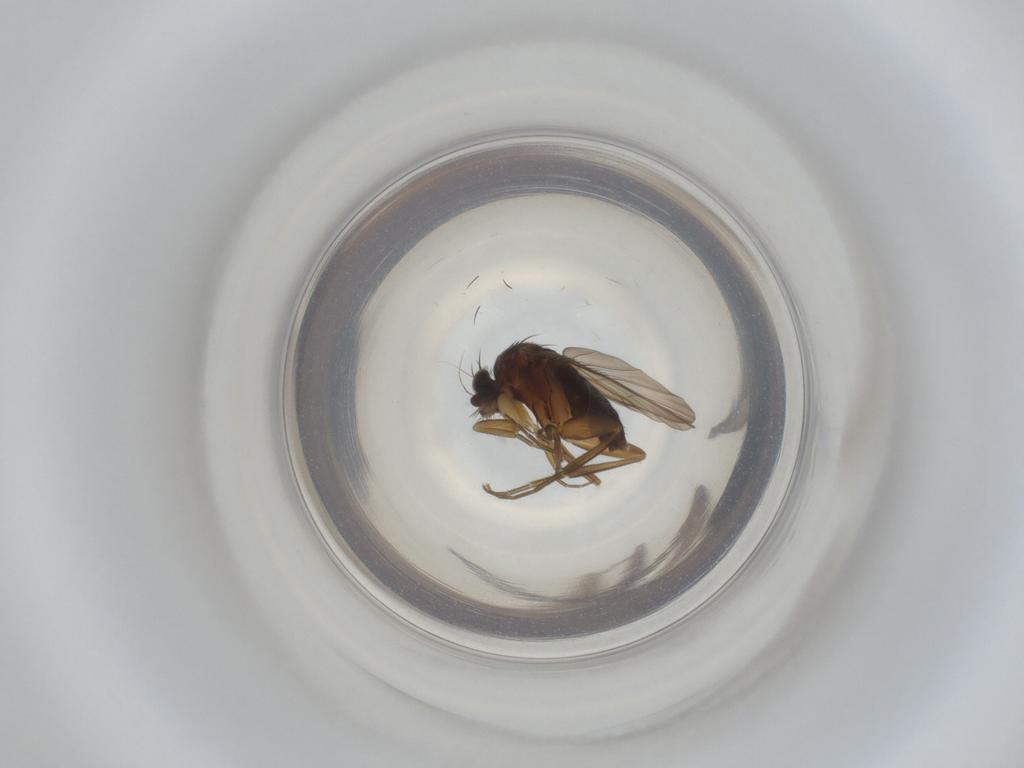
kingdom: Animalia
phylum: Arthropoda
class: Insecta
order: Diptera
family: Phoridae
